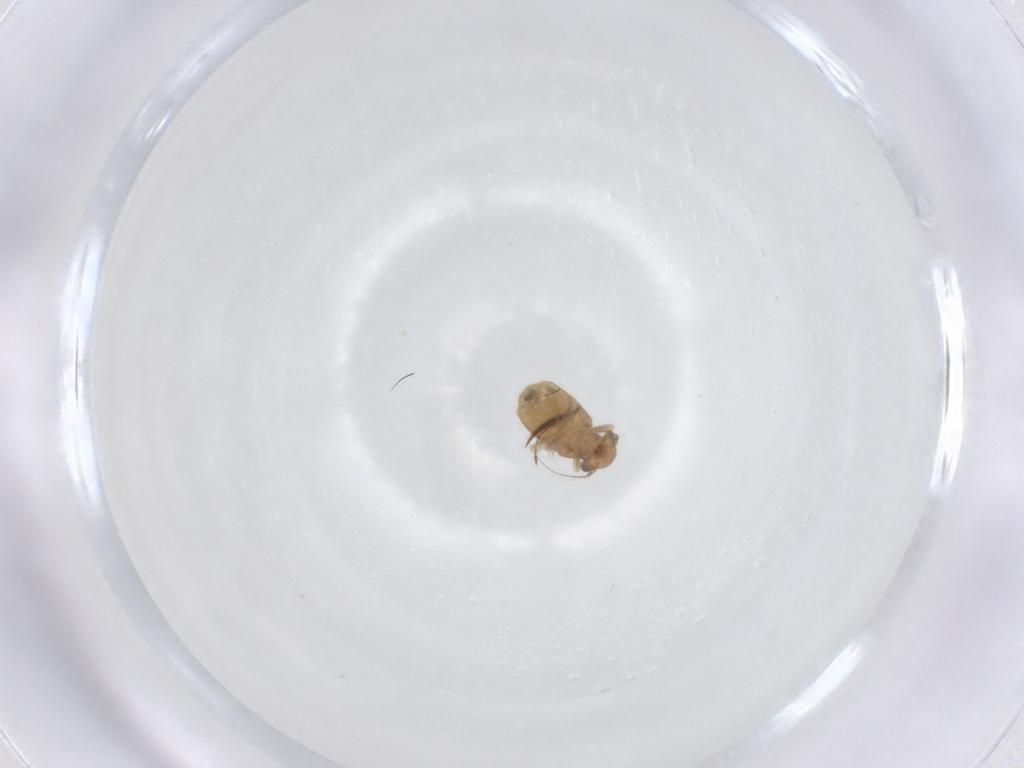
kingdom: Animalia
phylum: Arthropoda
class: Insecta
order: Psocodea
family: Trogiidae
